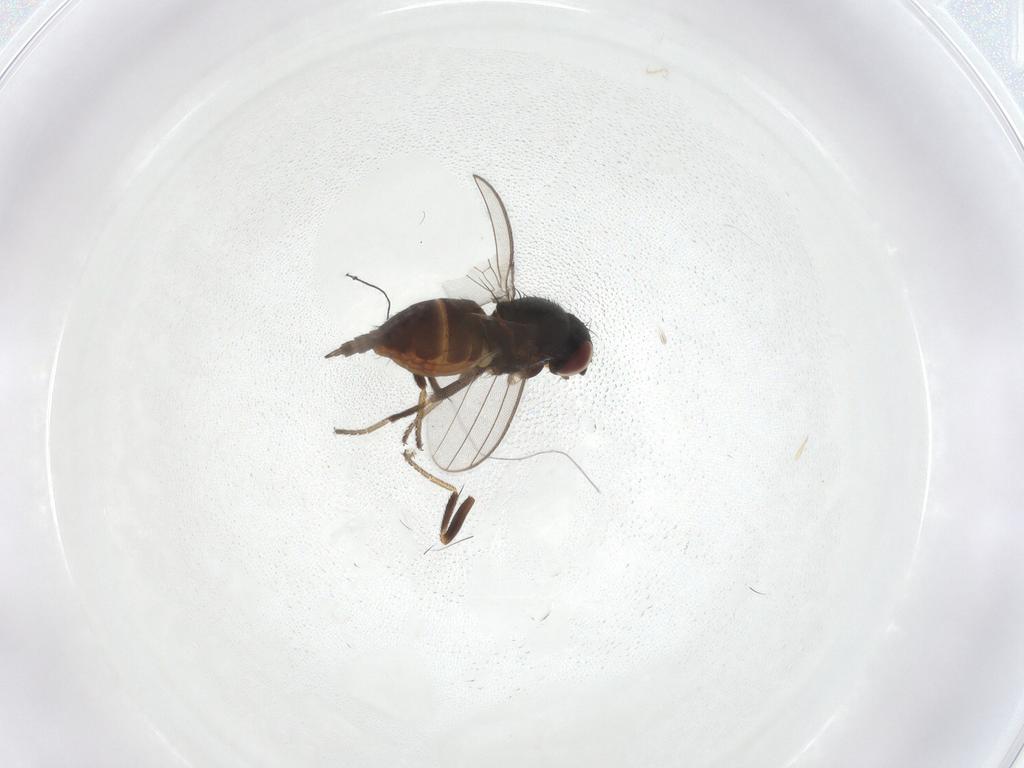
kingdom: Animalia
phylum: Arthropoda
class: Insecta
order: Diptera
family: Milichiidae
